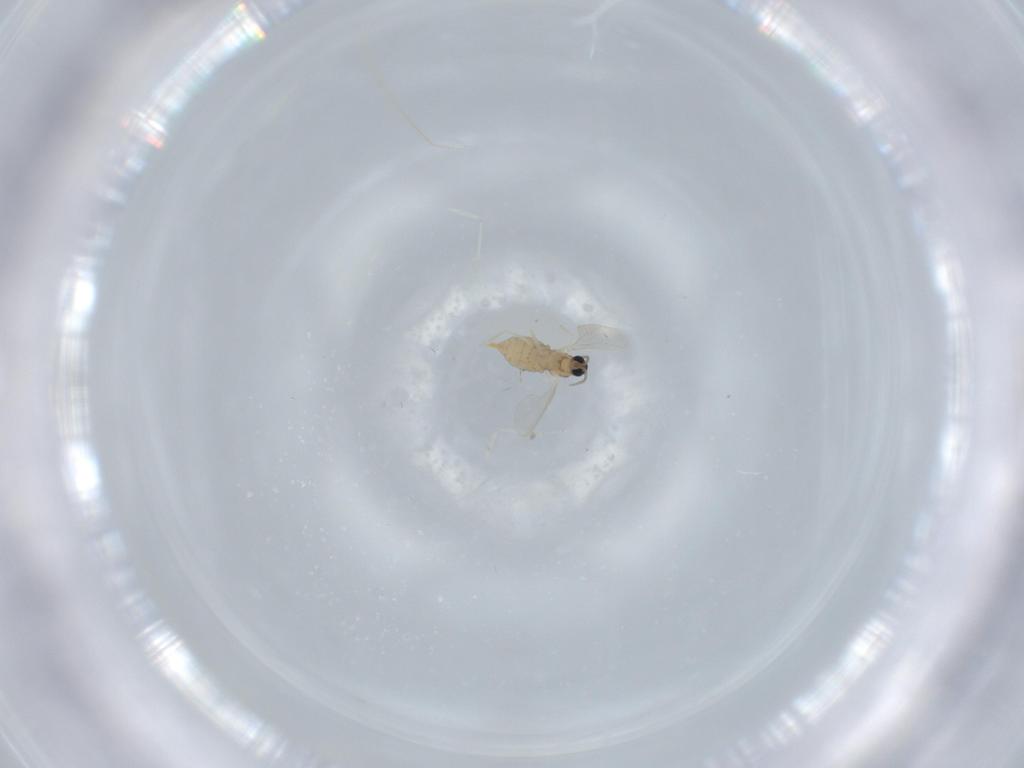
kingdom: Animalia
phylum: Arthropoda
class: Insecta
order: Diptera
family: Cecidomyiidae
